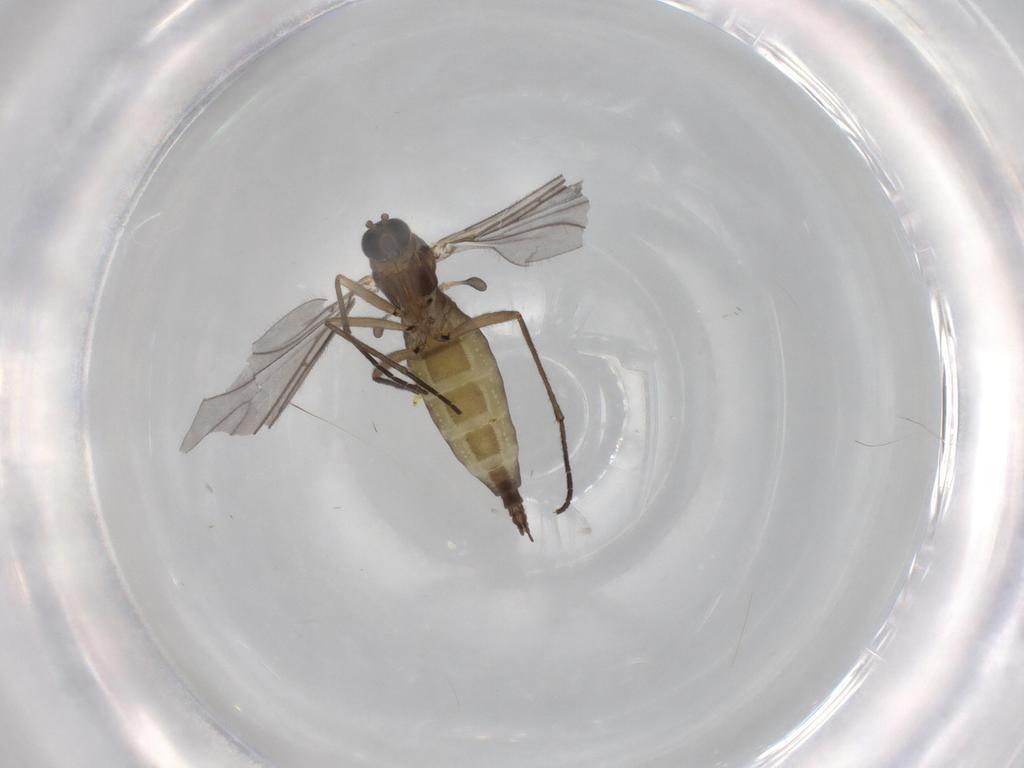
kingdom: Animalia
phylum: Arthropoda
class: Insecta
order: Diptera
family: Sciaridae
